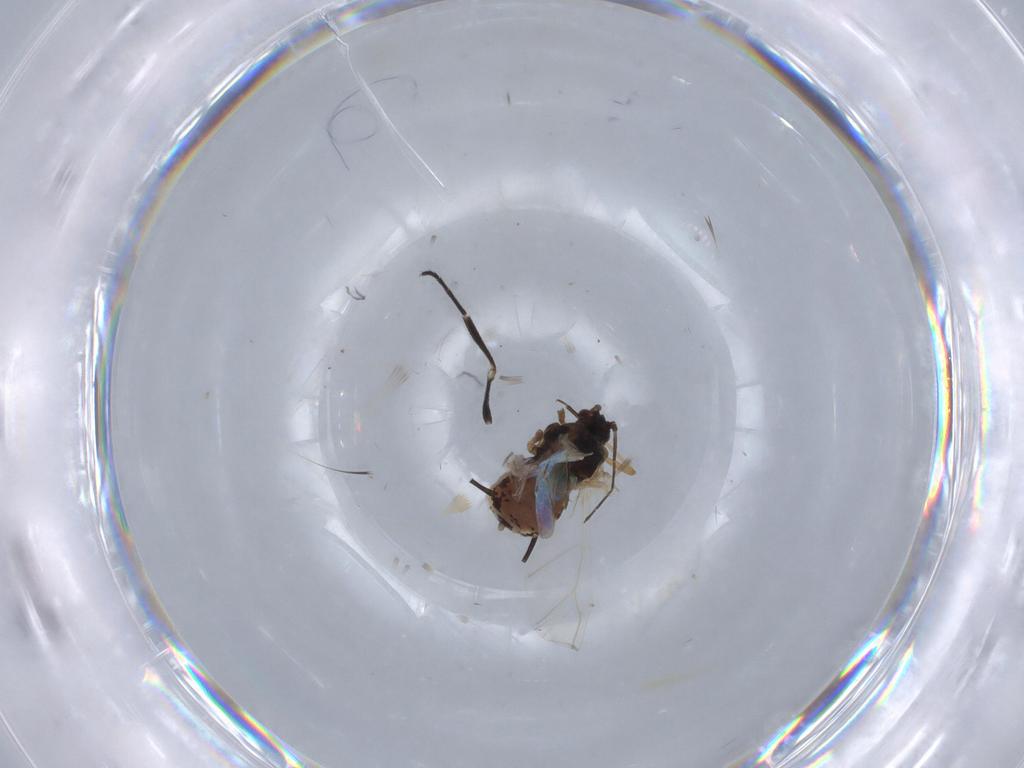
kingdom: Animalia
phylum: Arthropoda
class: Insecta
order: Hemiptera
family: Aphididae
